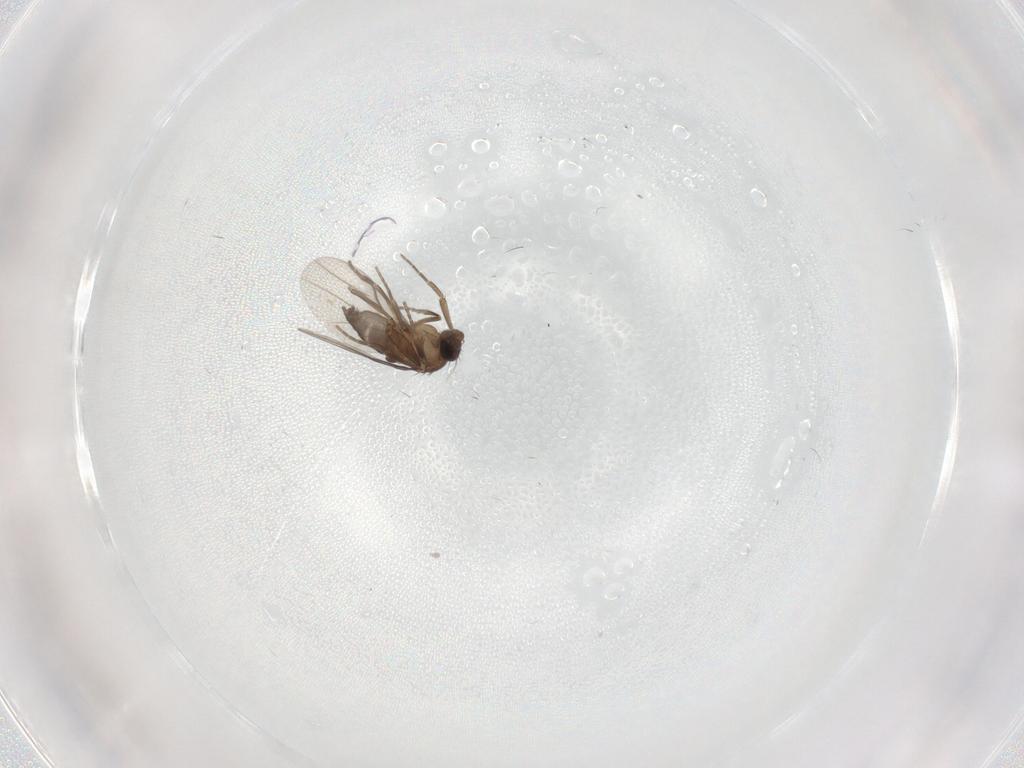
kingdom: Animalia
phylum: Arthropoda
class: Insecta
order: Diptera
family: Phoridae
